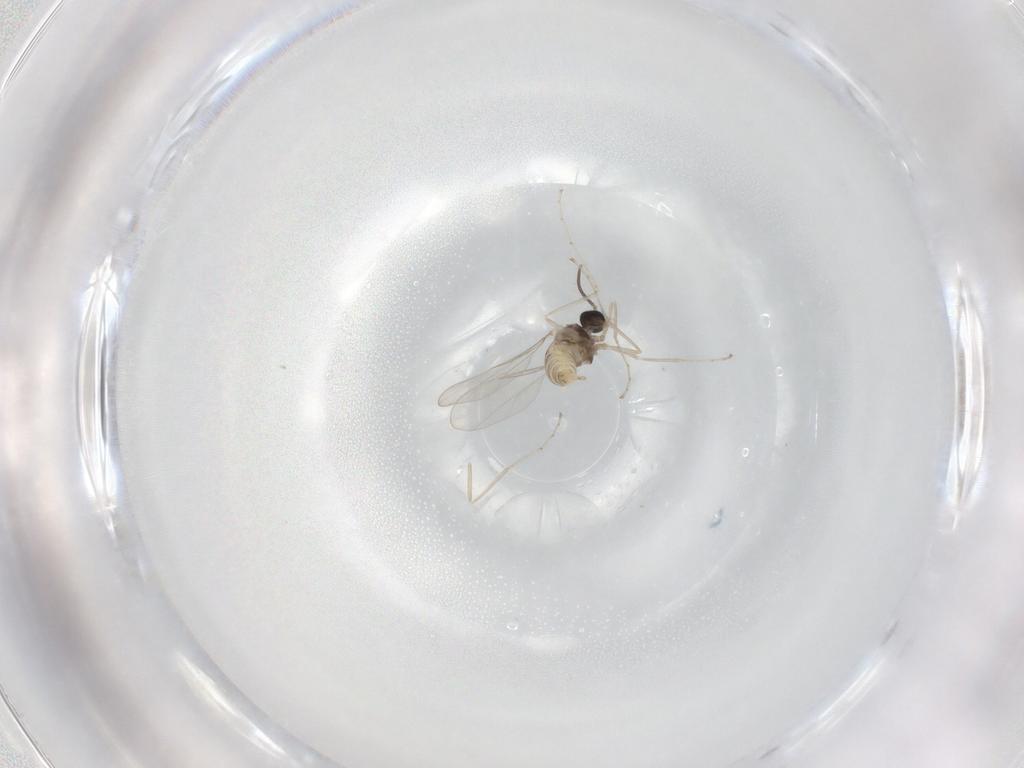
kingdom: Animalia
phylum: Arthropoda
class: Insecta
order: Diptera
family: Cecidomyiidae
